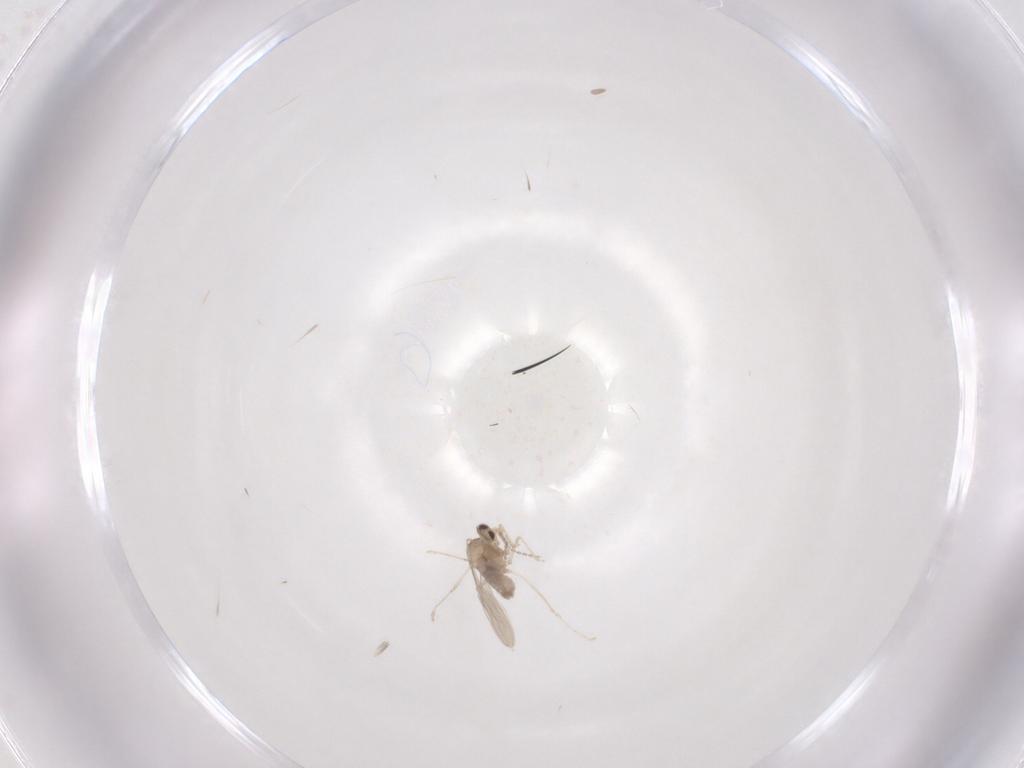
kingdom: Animalia
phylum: Arthropoda
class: Insecta
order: Diptera
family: Cecidomyiidae
